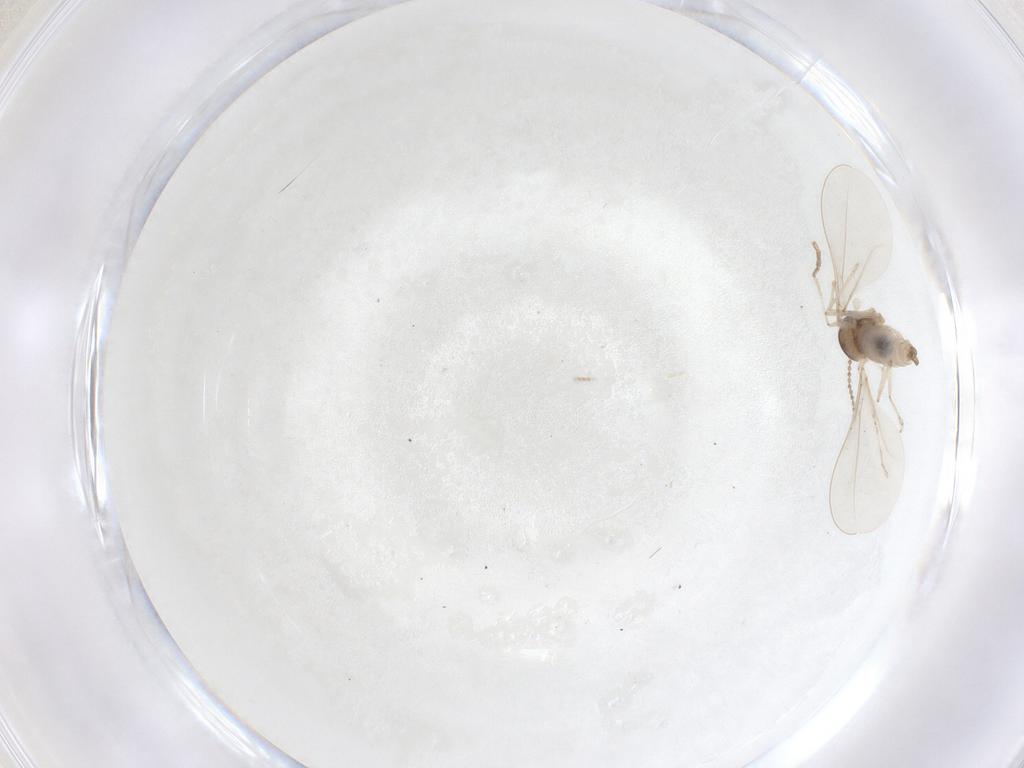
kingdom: Animalia
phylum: Arthropoda
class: Insecta
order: Diptera
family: Cecidomyiidae
